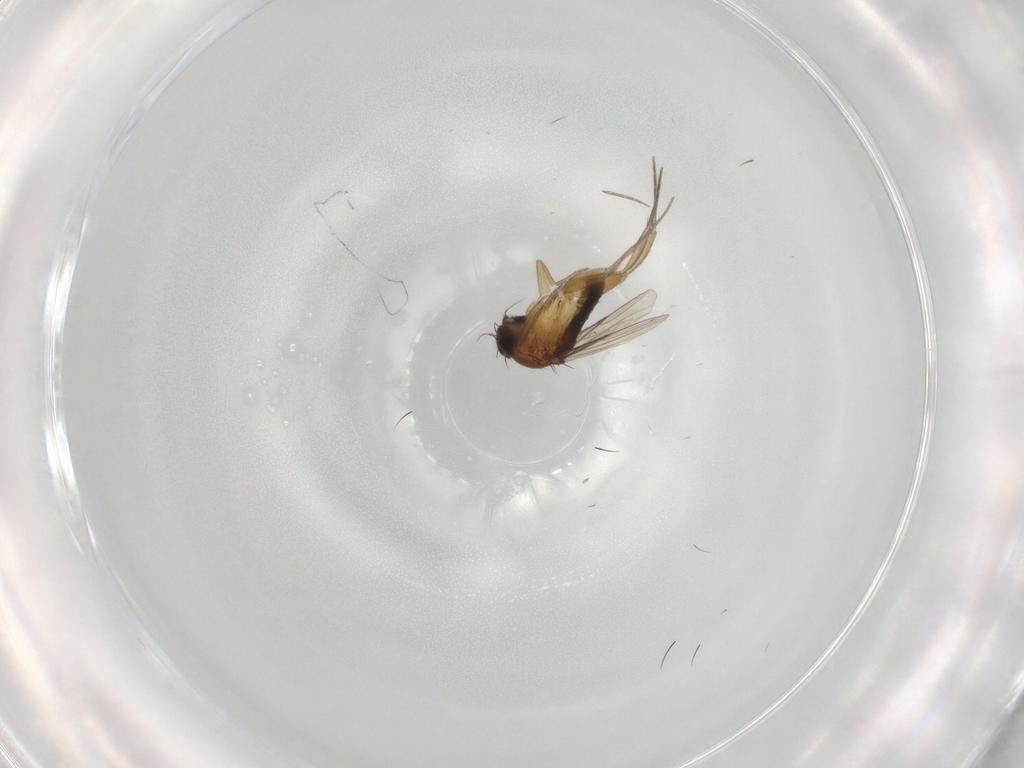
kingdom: Animalia
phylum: Arthropoda
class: Insecta
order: Diptera
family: Phoridae
